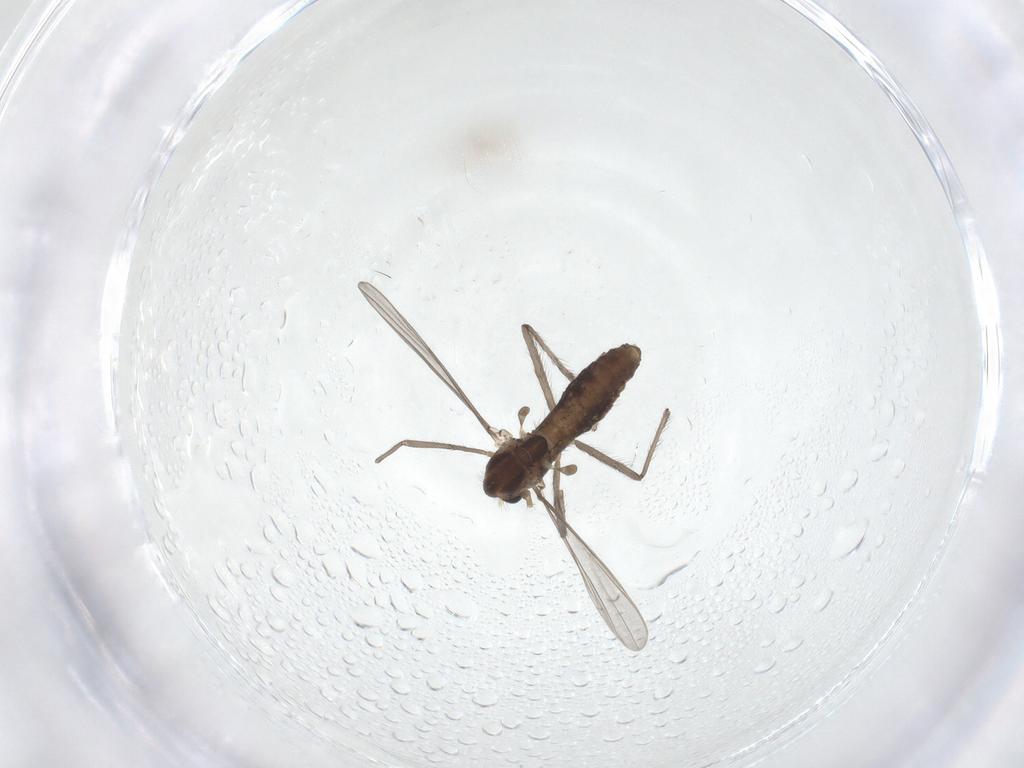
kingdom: Animalia
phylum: Arthropoda
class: Insecta
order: Diptera
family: Chironomidae
